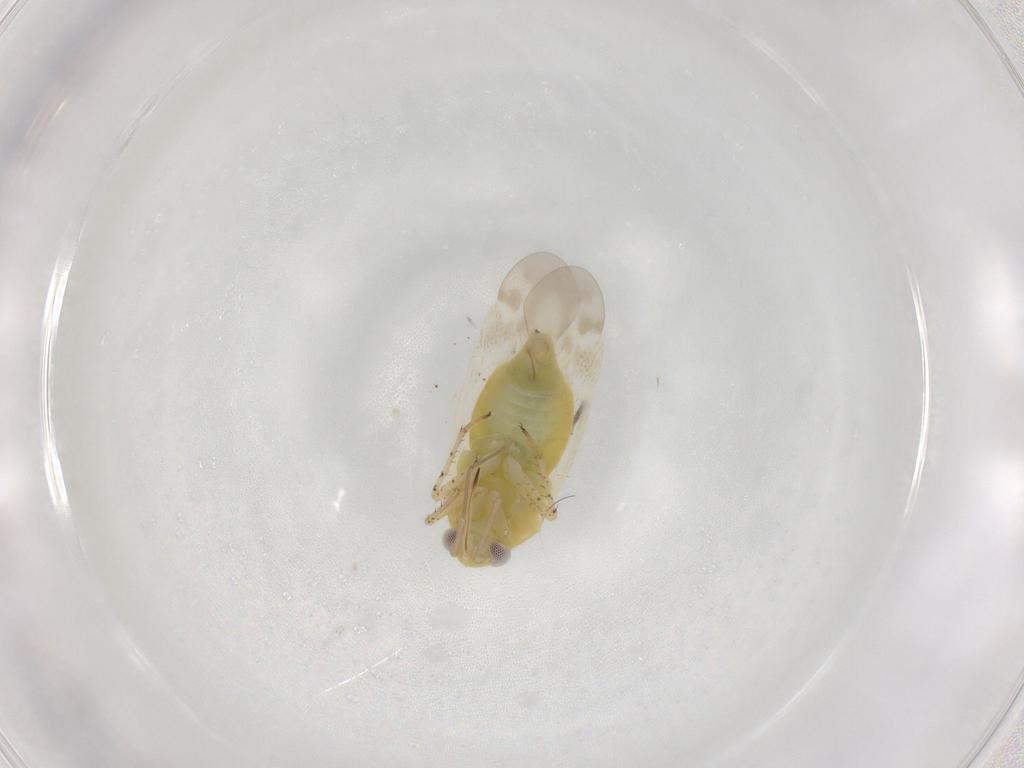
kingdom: Animalia
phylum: Arthropoda
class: Insecta
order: Hemiptera
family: Miridae
